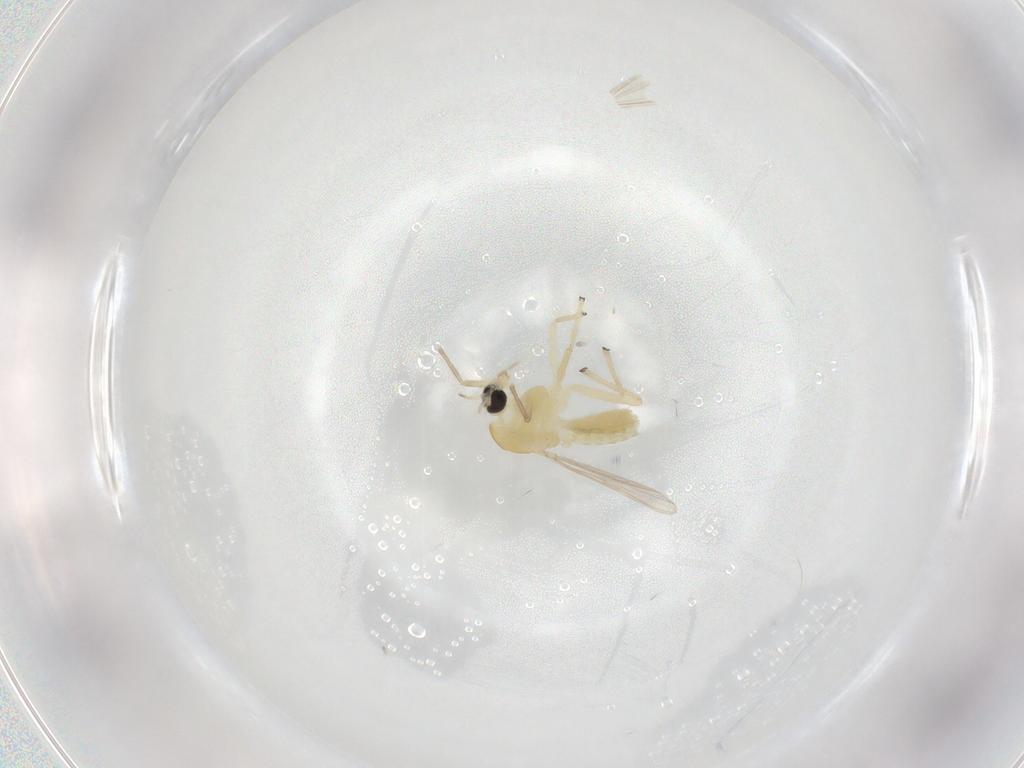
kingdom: Animalia
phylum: Arthropoda
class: Insecta
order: Diptera
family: Chironomidae
